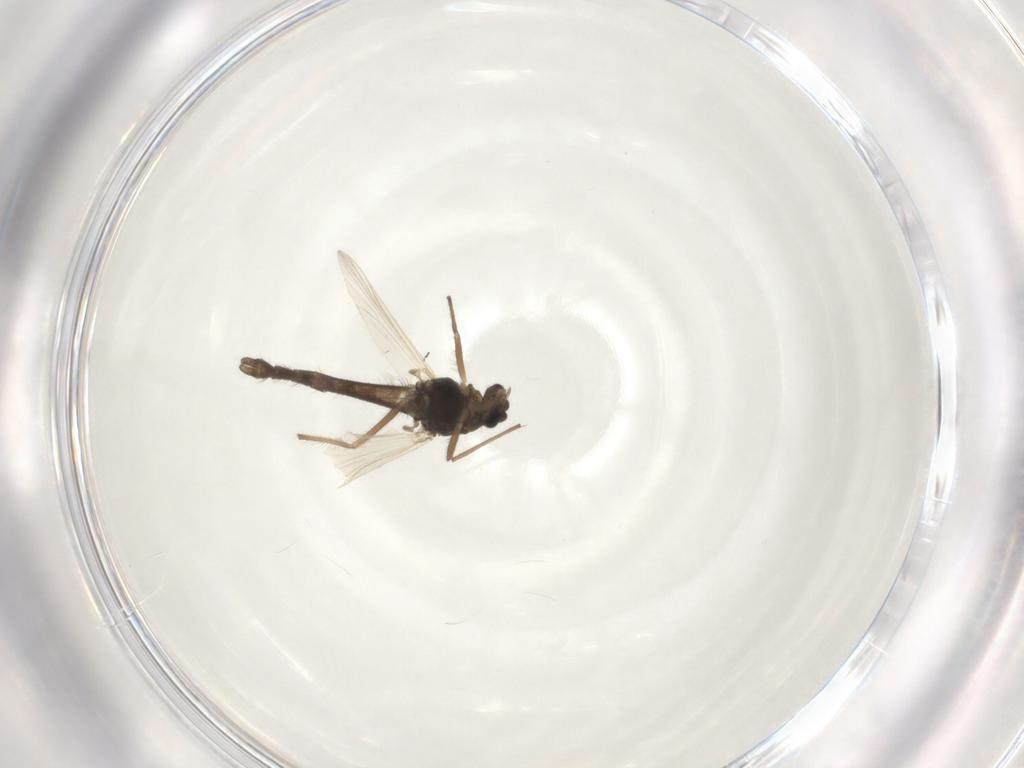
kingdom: Animalia
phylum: Arthropoda
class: Insecta
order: Diptera
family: Chironomidae
